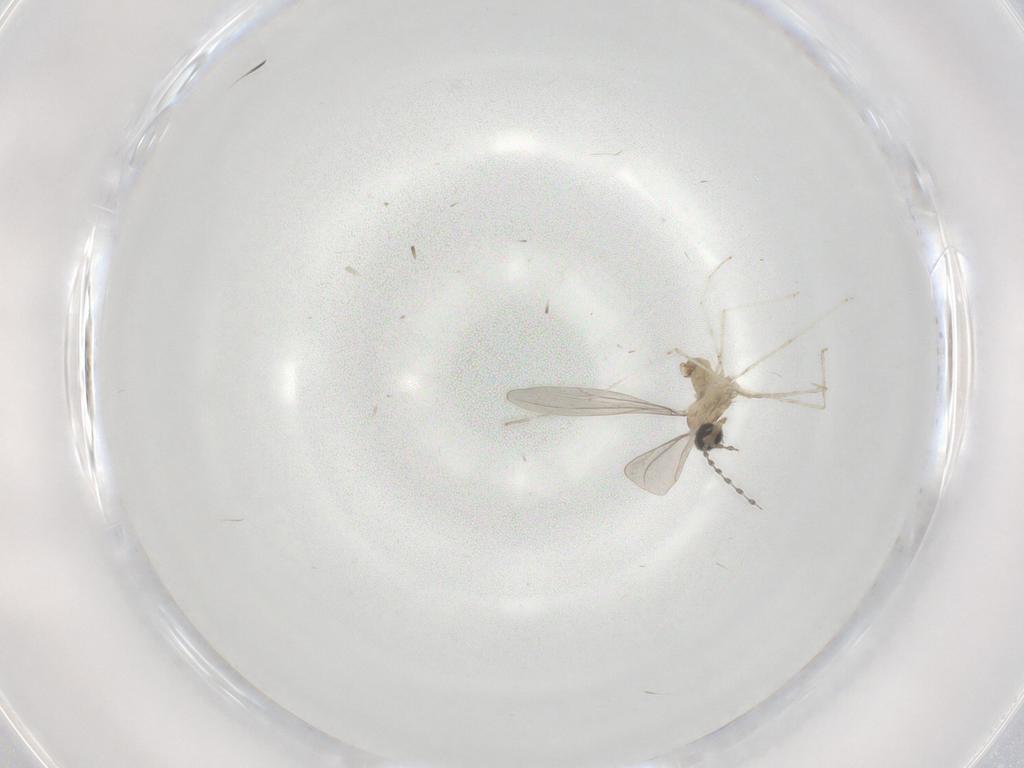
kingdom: Animalia
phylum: Arthropoda
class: Insecta
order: Diptera
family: Cecidomyiidae
